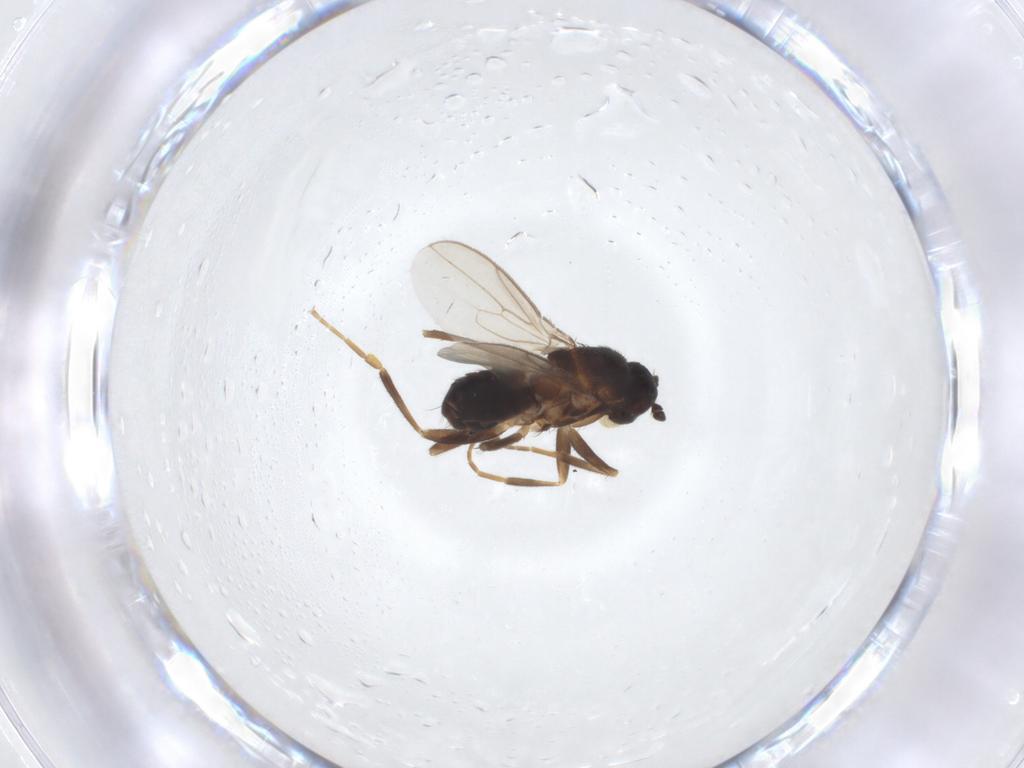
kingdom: Animalia
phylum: Arthropoda
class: Insecta
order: Diptera
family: Sphaeroceridae
